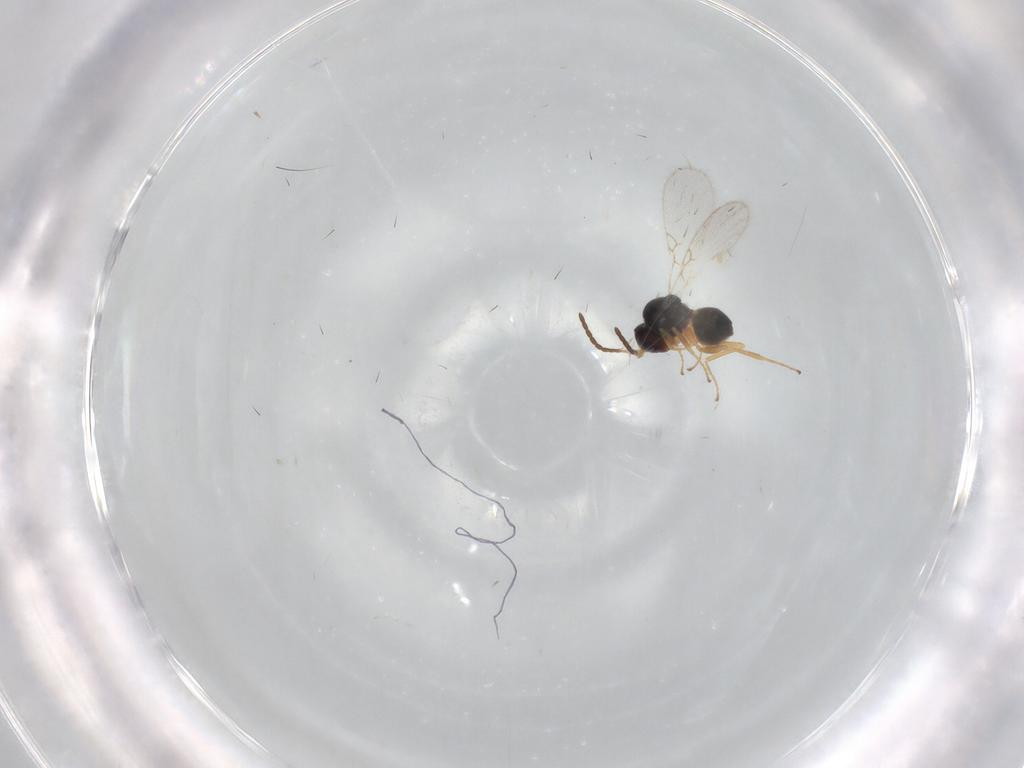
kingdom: Animalia
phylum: Arthropoda
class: Insecta
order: Hymenoptera
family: Figitidae
